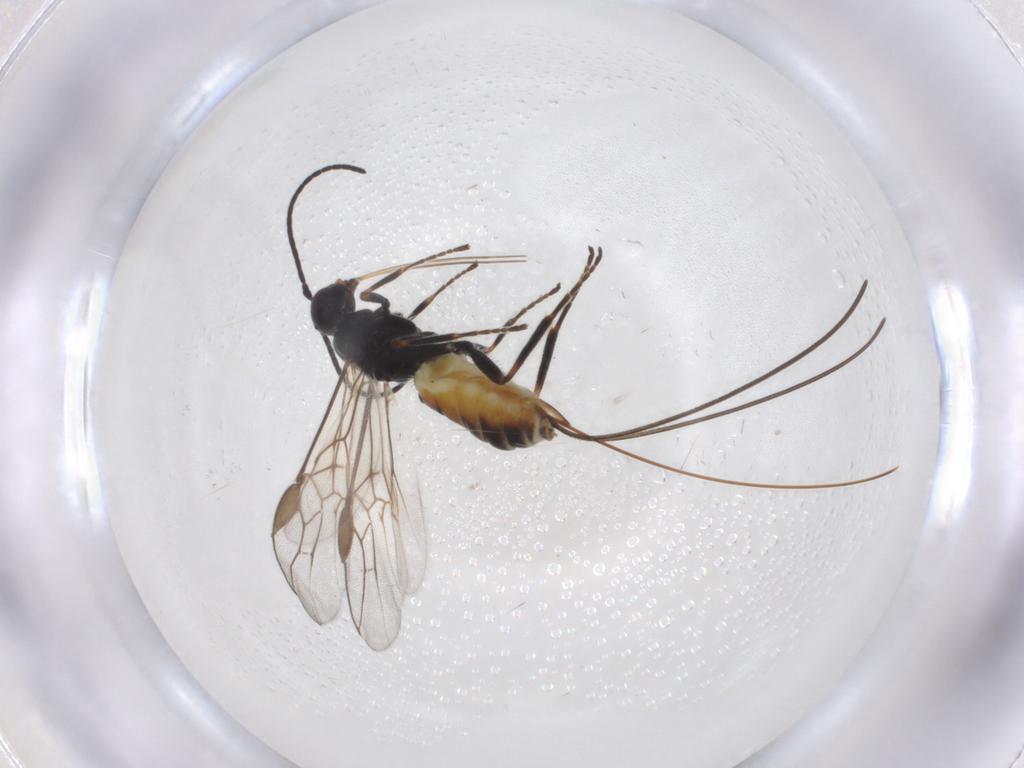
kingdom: Animalia
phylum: Arthropoda
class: Insecta
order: Hymenoptera
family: Braconidae
